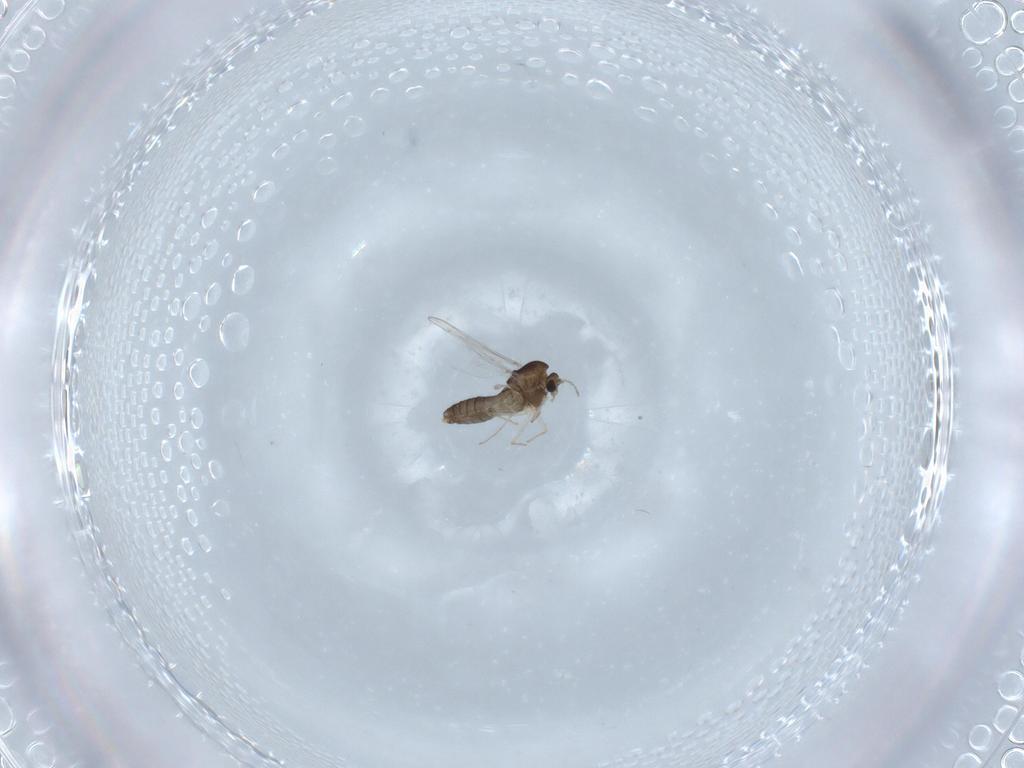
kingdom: Animalia
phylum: Arthropoda
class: Insecta
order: Diptera
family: Chironomidae
